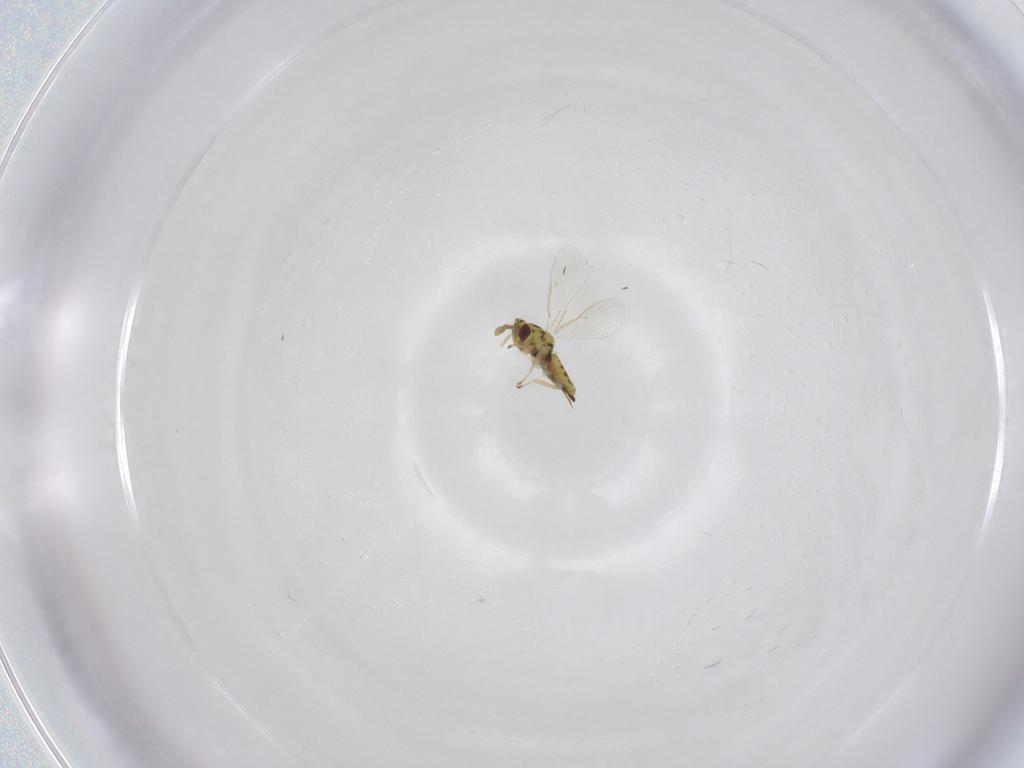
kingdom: Animalia
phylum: Arthropoda
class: Insecta
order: Hymenoptera
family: Eulophidae
